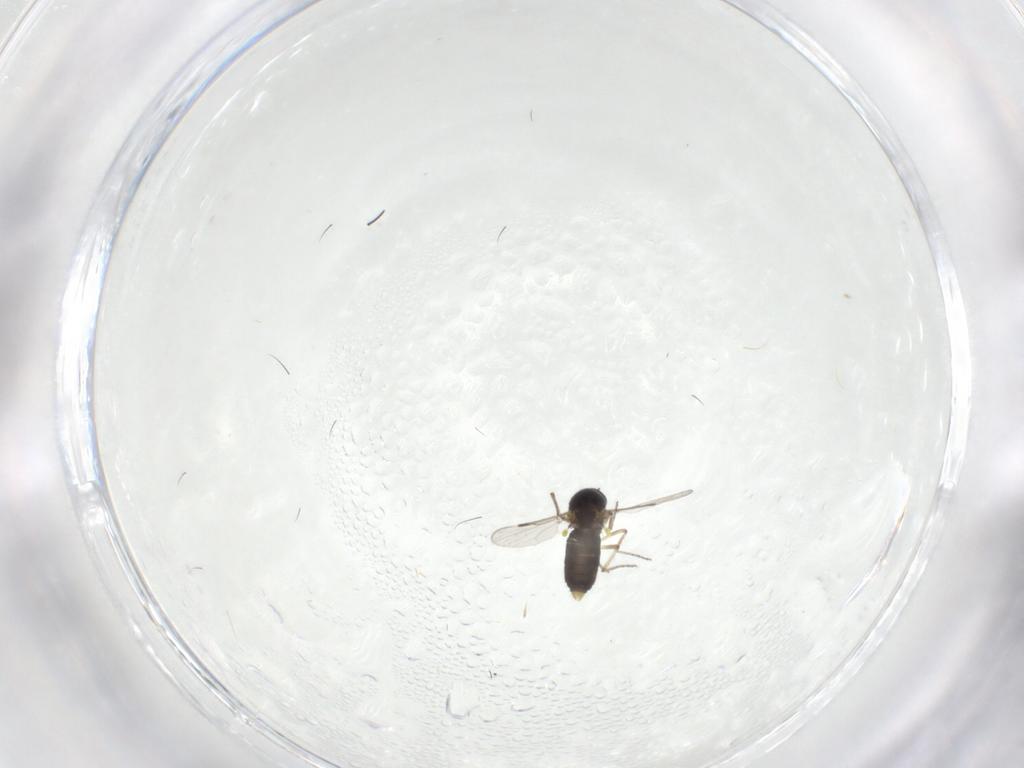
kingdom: Animalia
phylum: Arthropoda
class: Insecta
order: Diptera
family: Ceratopogonidae
